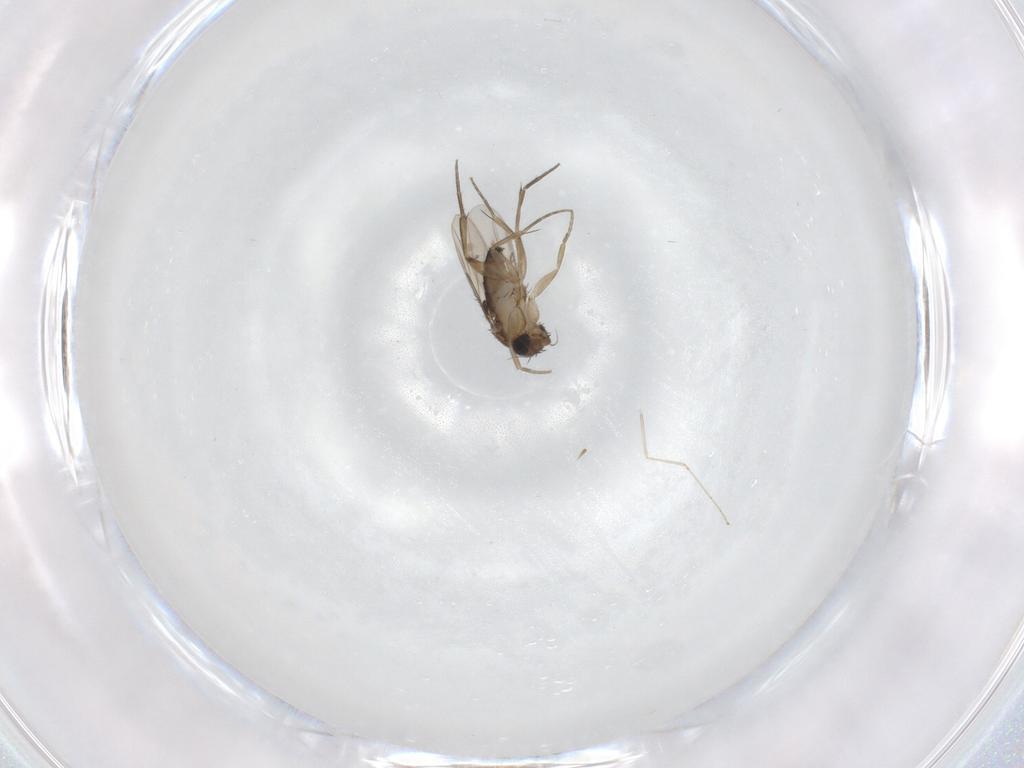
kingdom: Animalia
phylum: Arthropoda
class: Insecta
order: Diptera
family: Phoridae
